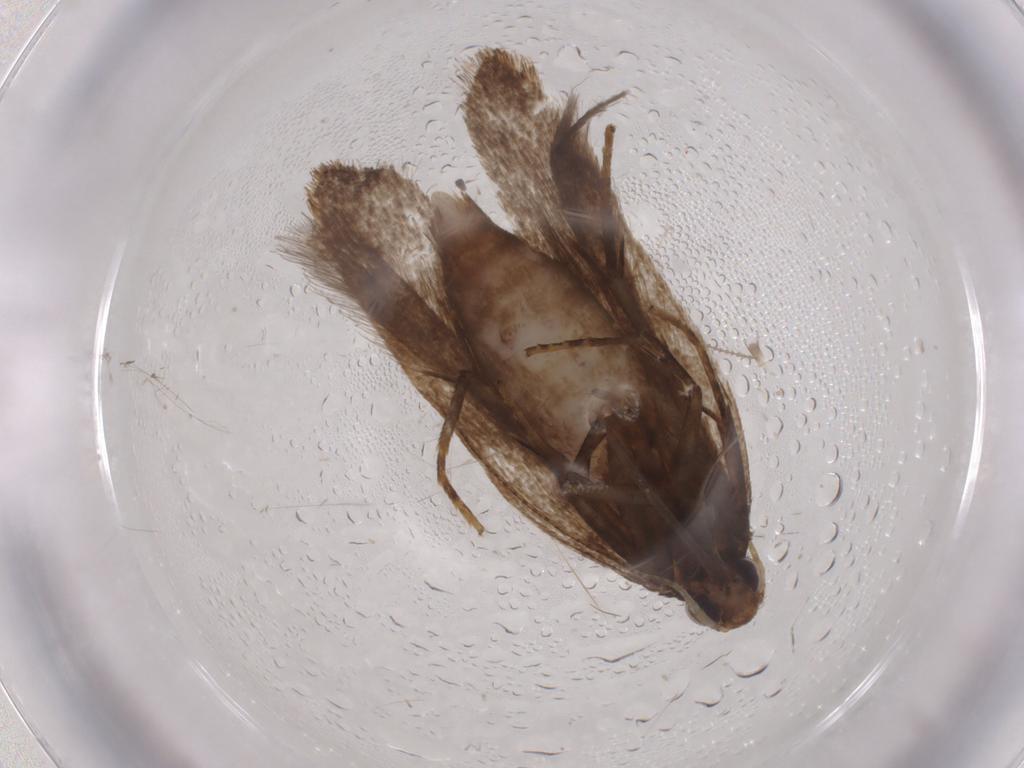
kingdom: Animalia
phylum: Arthropoda
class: Insecta
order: Lepidoptera
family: Gelechiidae
